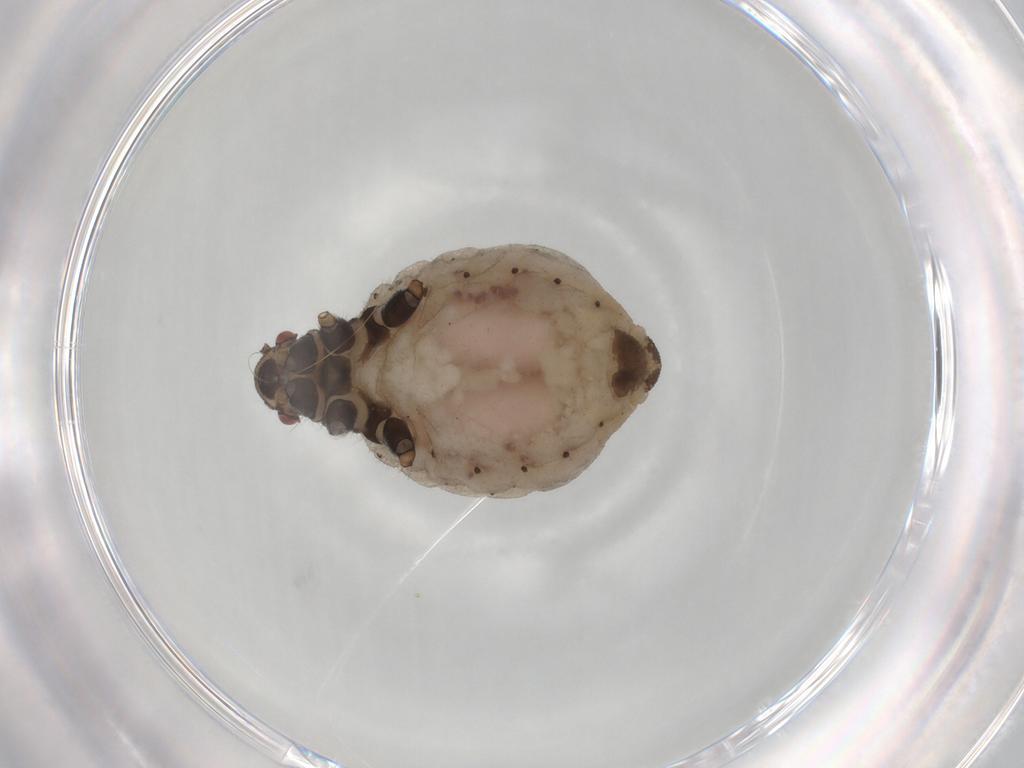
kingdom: Animalia
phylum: Arthropoda
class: Insecta
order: Hemiptera
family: Aphididae
